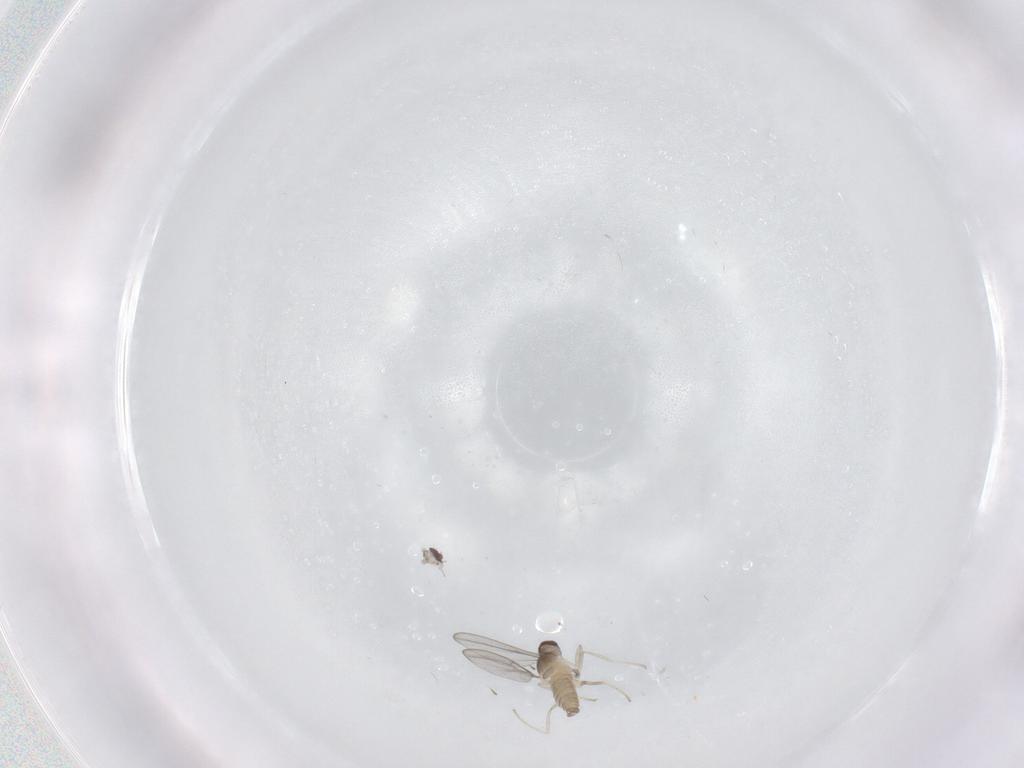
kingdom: Animalia
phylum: Arthropoda
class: Insecta
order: Diptera
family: Cecidomyiidae
